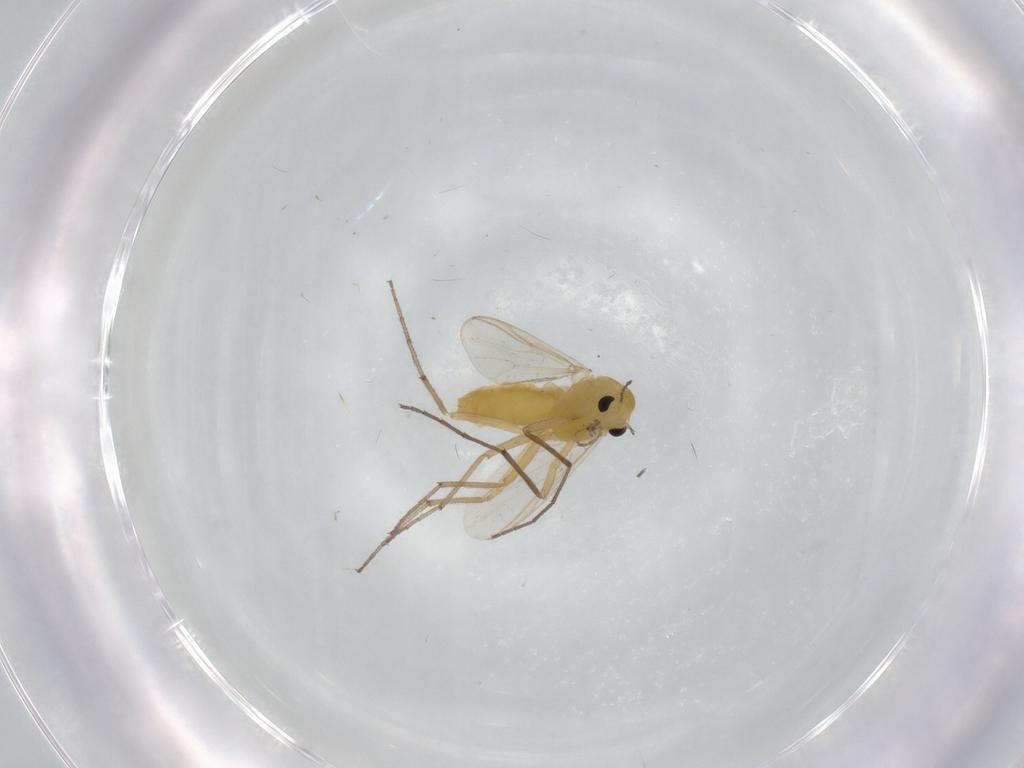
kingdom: Animalia
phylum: Arthropoda
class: Insecta
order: Diptera
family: Chironomidae
